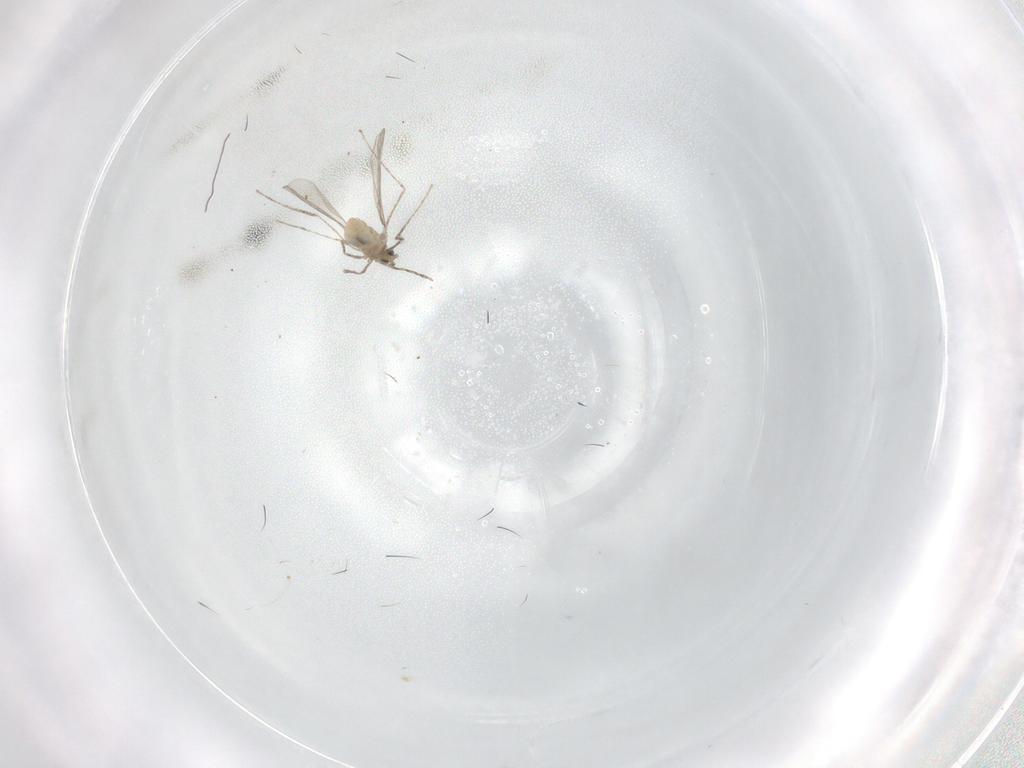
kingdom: Animalia
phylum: Arthropoda
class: Insecta
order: Diptera
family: Cecidomyiidae
